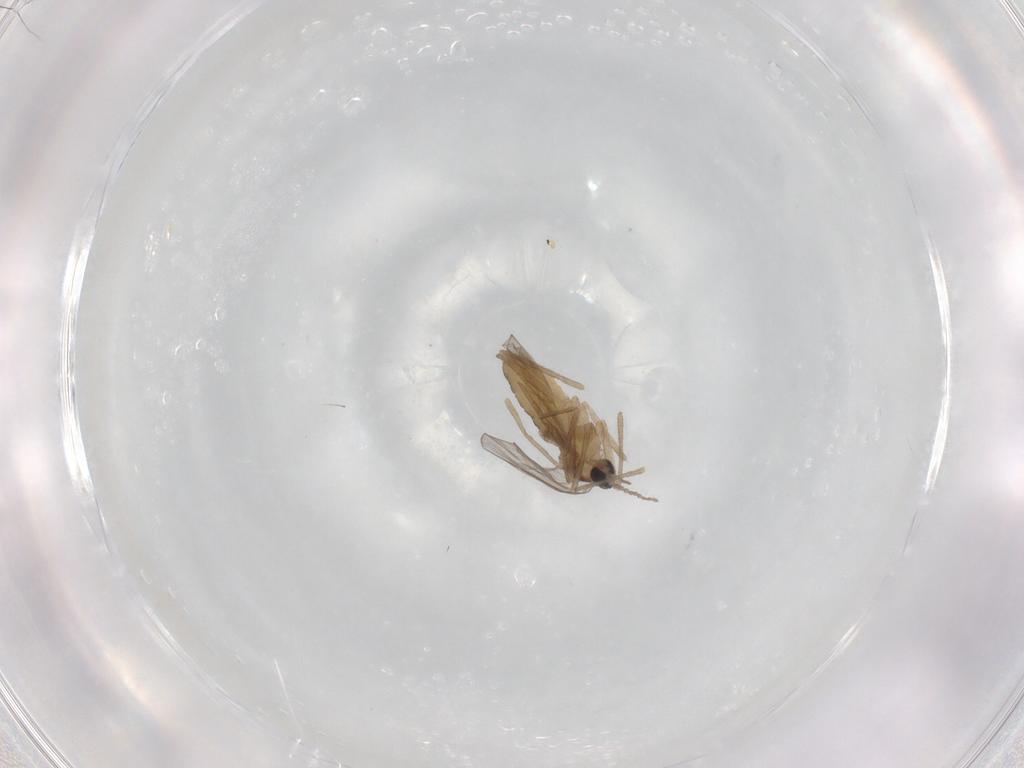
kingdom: Animalia
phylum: Arthropoda
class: Insecta
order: Diptera
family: Cecidomyiidae
